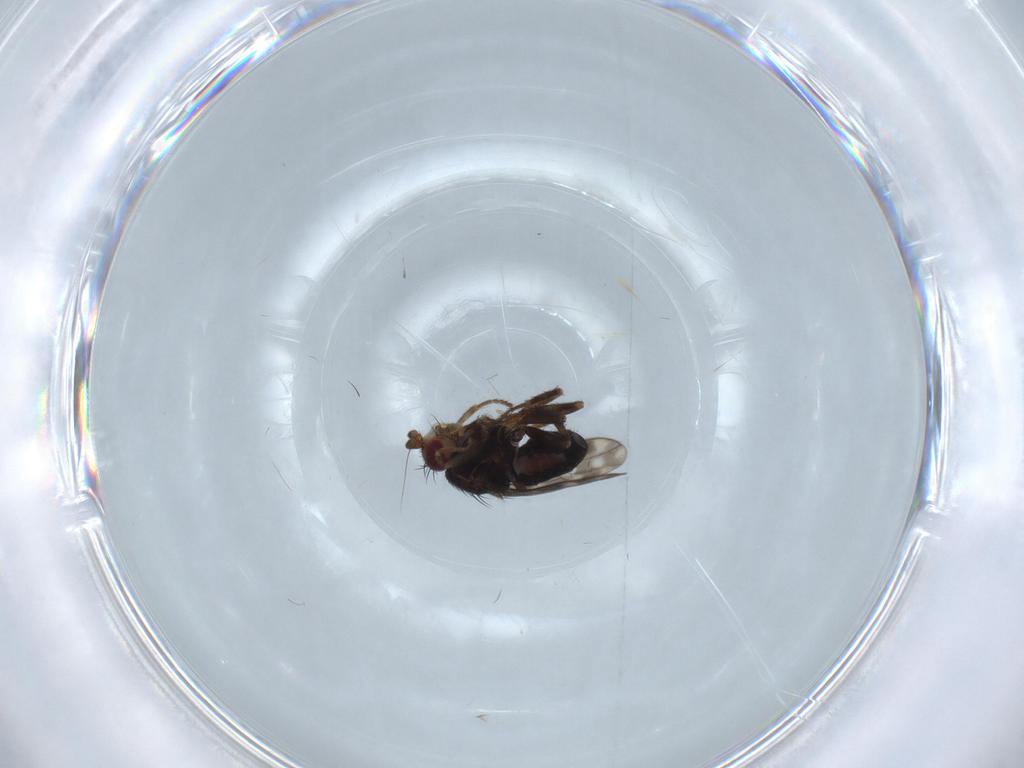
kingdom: Animalia
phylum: Arthropoda
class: Insecta
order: Diptera
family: Sphaeroceridae
